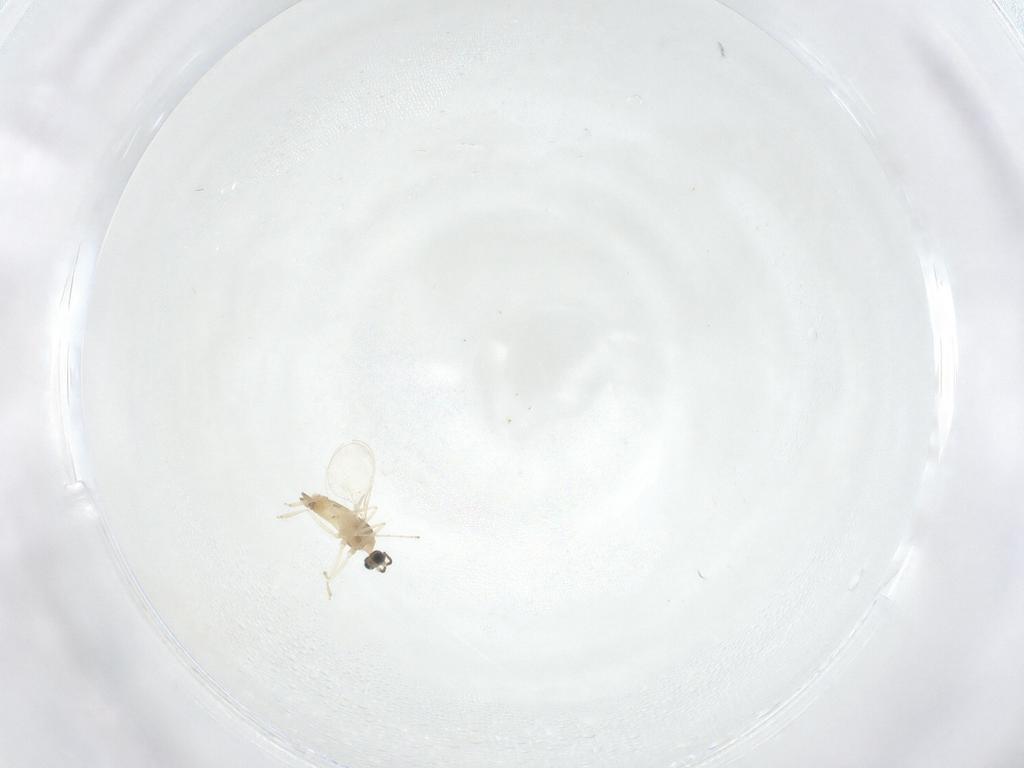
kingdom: Animalia
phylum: Arthropoda
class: Insecta
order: Diptera
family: Cecidomyiidae
